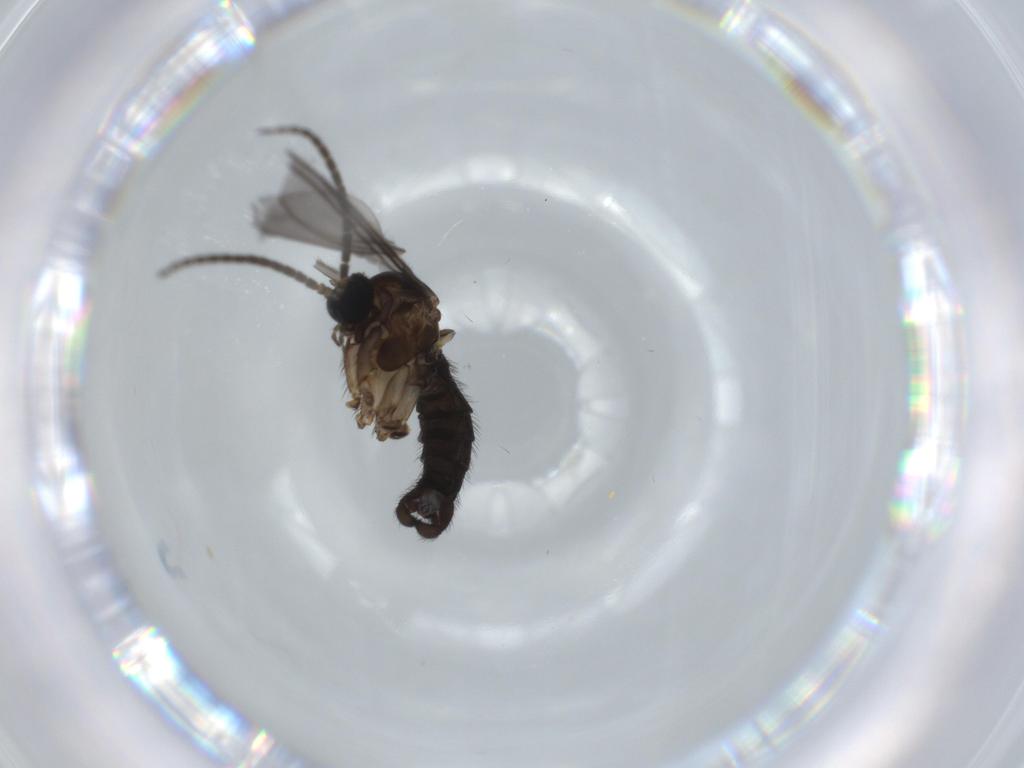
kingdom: Animalia
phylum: Arthropoda
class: Insecta
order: Diptera
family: Sciaridae
